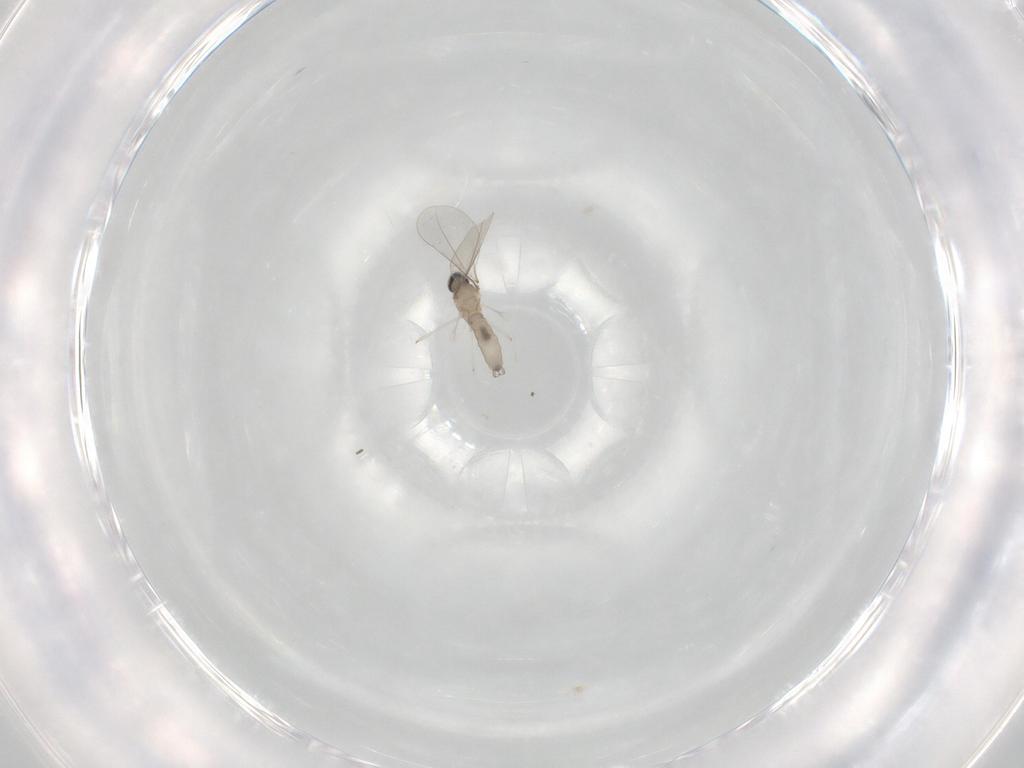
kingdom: Animalia
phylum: Arthropoda
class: Insecta
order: Diptera
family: Cecidomyiidae
